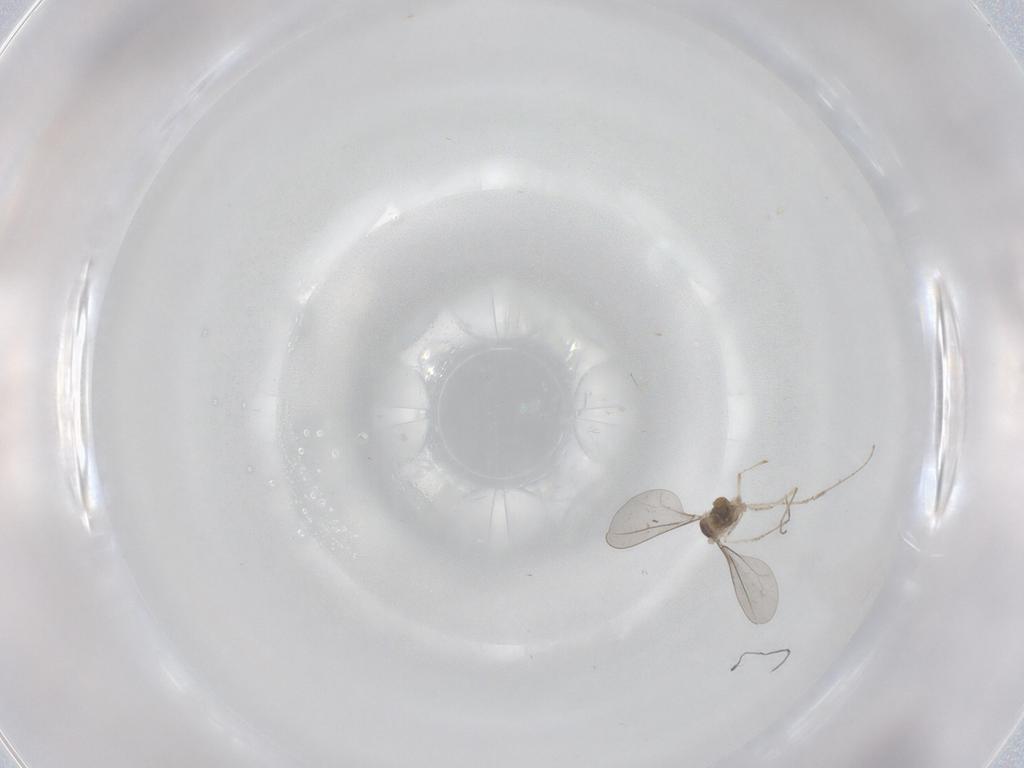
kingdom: Animalia
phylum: Arthropoda
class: Insecta
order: Diptera
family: Cecidomyiidae
